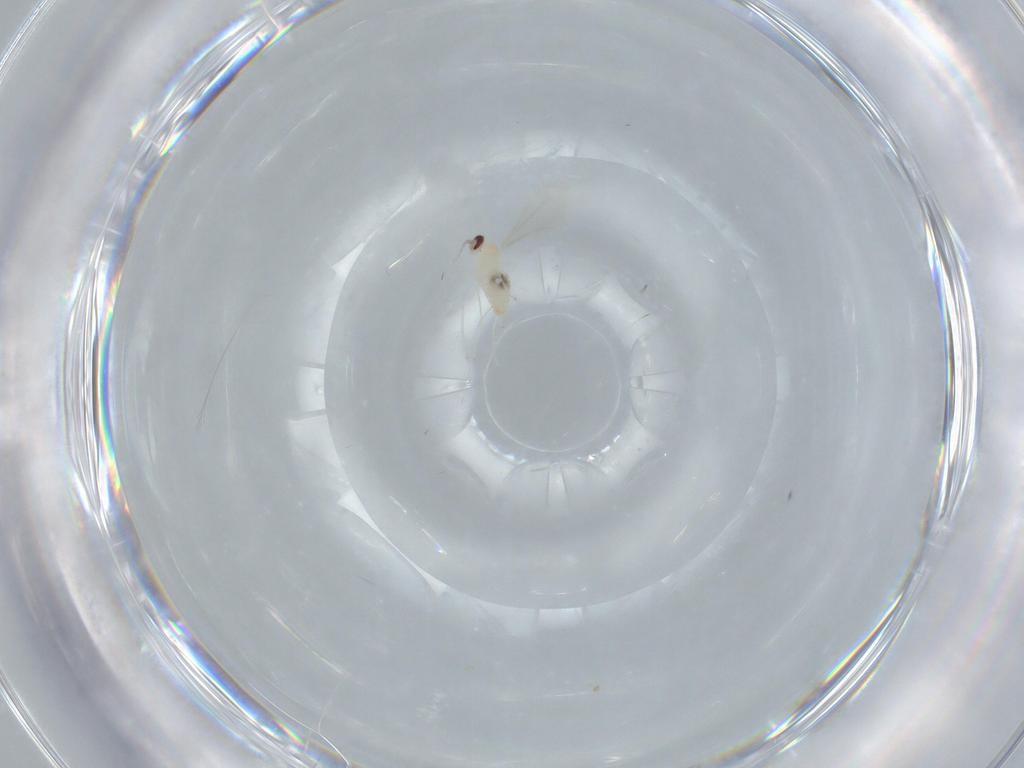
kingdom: Animalia
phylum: Arthropoda
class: Insecta
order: Diptera
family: Cecidomyiidae
